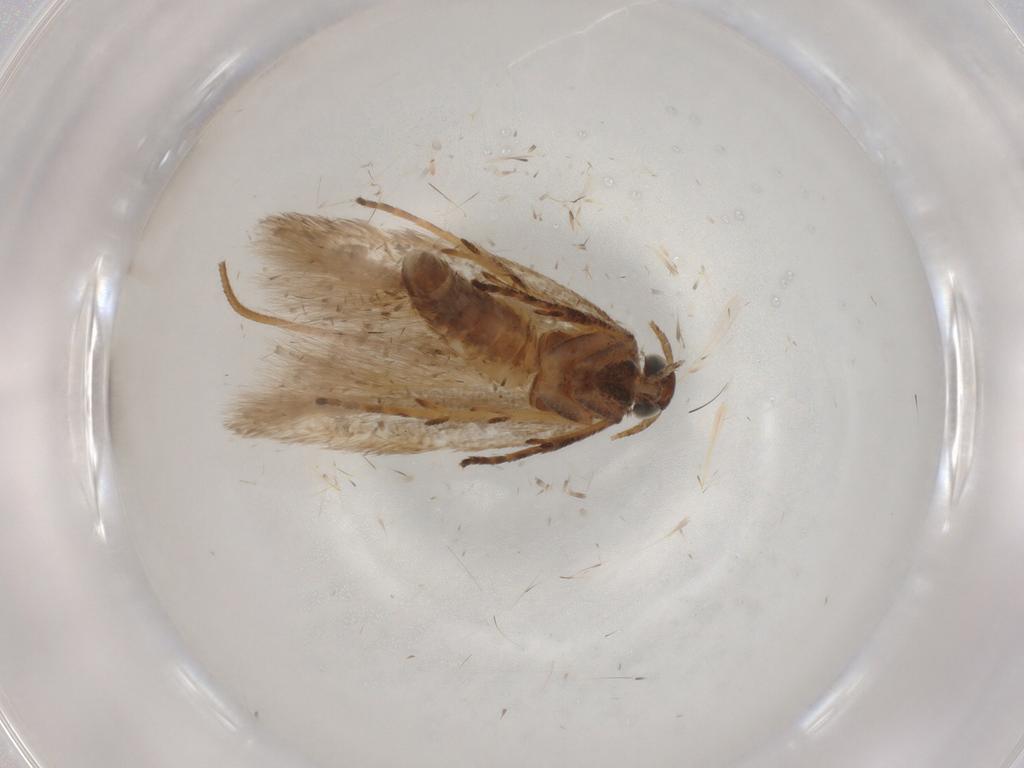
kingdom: Animalia
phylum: Arthropoda
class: Insecta
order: Lepidoptera
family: Gelechiidae
